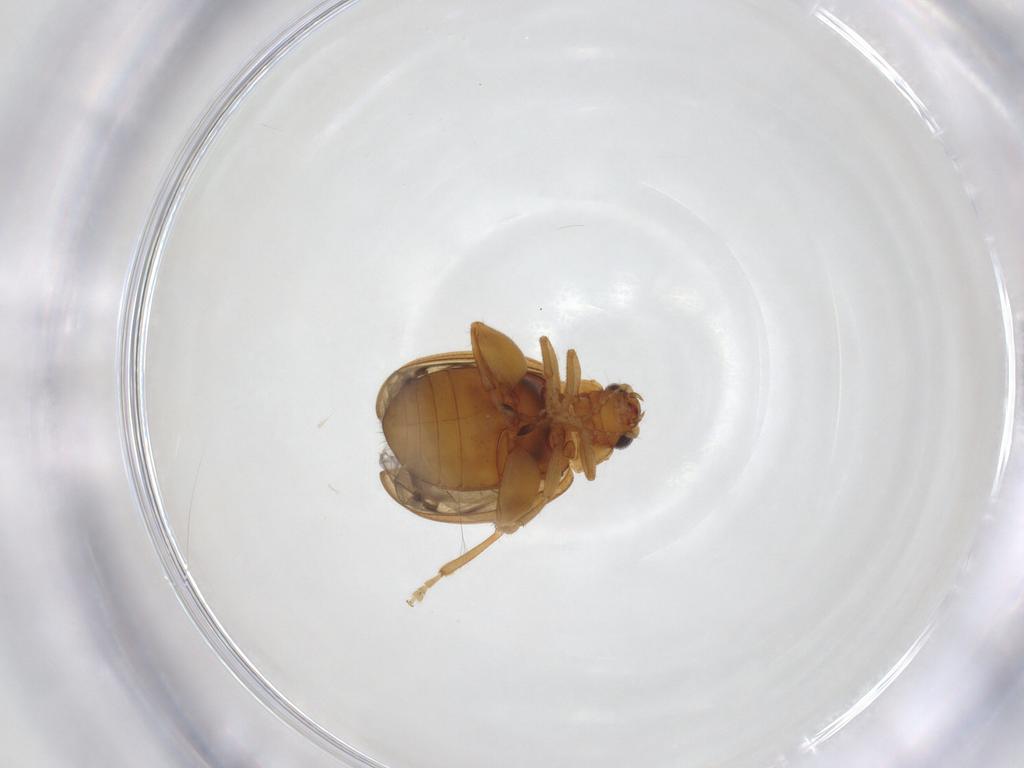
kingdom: Animalia
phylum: Arthropoda
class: Insecta
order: Coleoptera
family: Chrysomelidae
